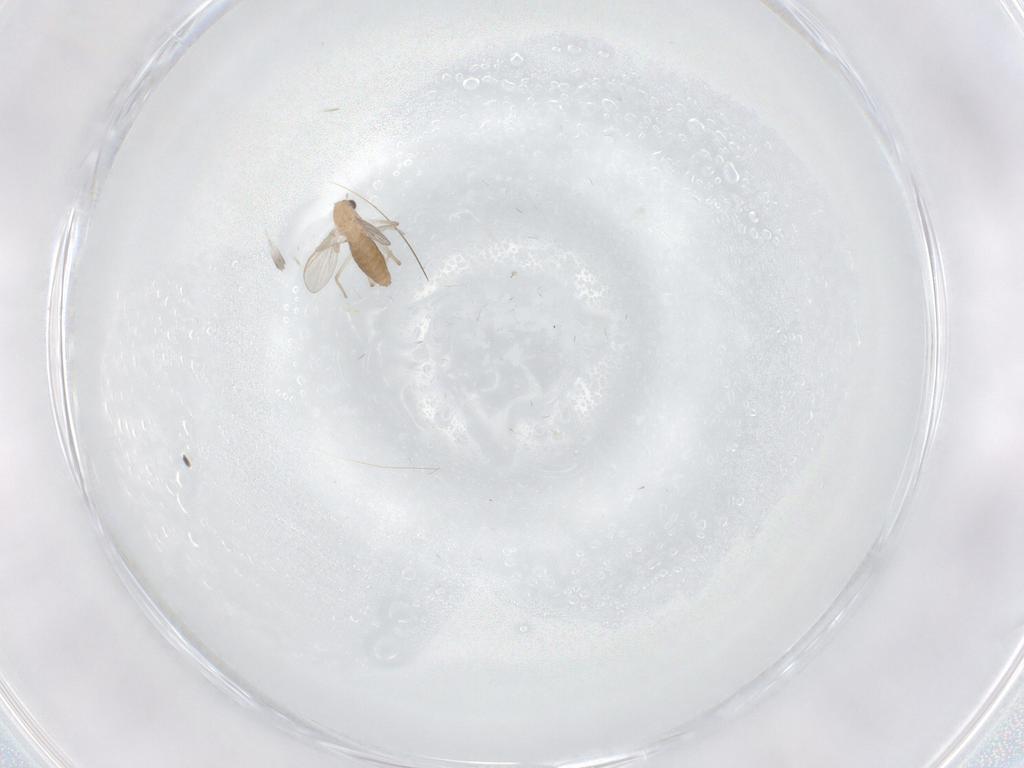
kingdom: Animalia
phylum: Arthropoda
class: Insecta
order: Diptera
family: Chironomidae
